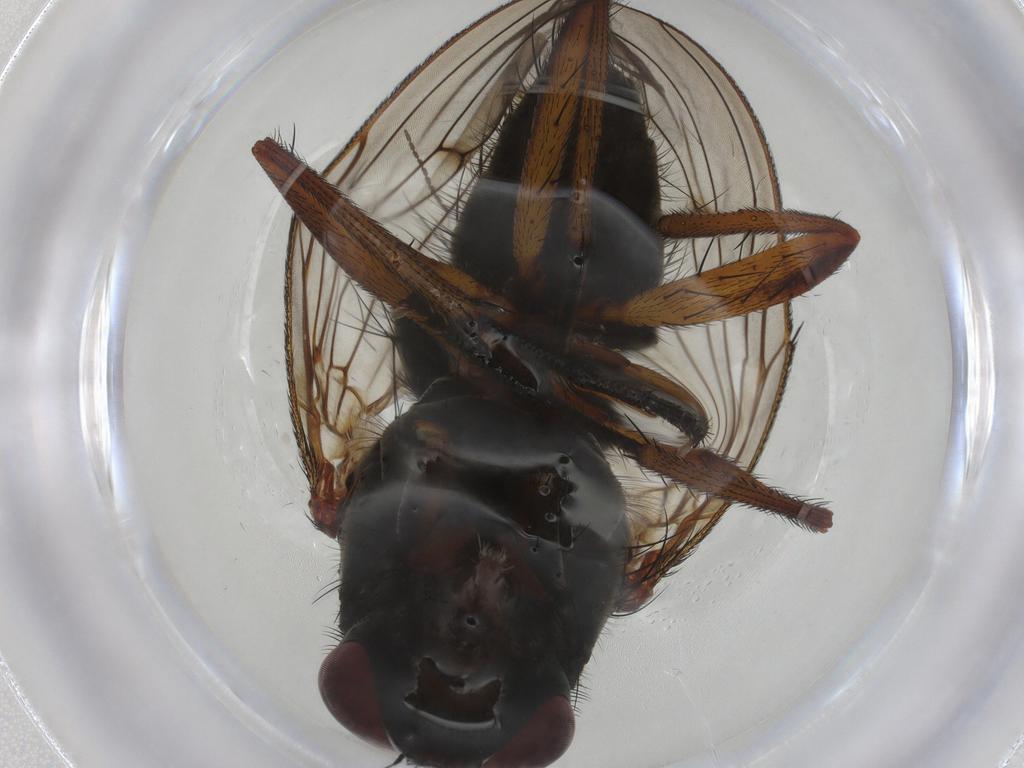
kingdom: Animalia
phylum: Arthropoda
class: Insecta
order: Diptera
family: Anthomyiidae
